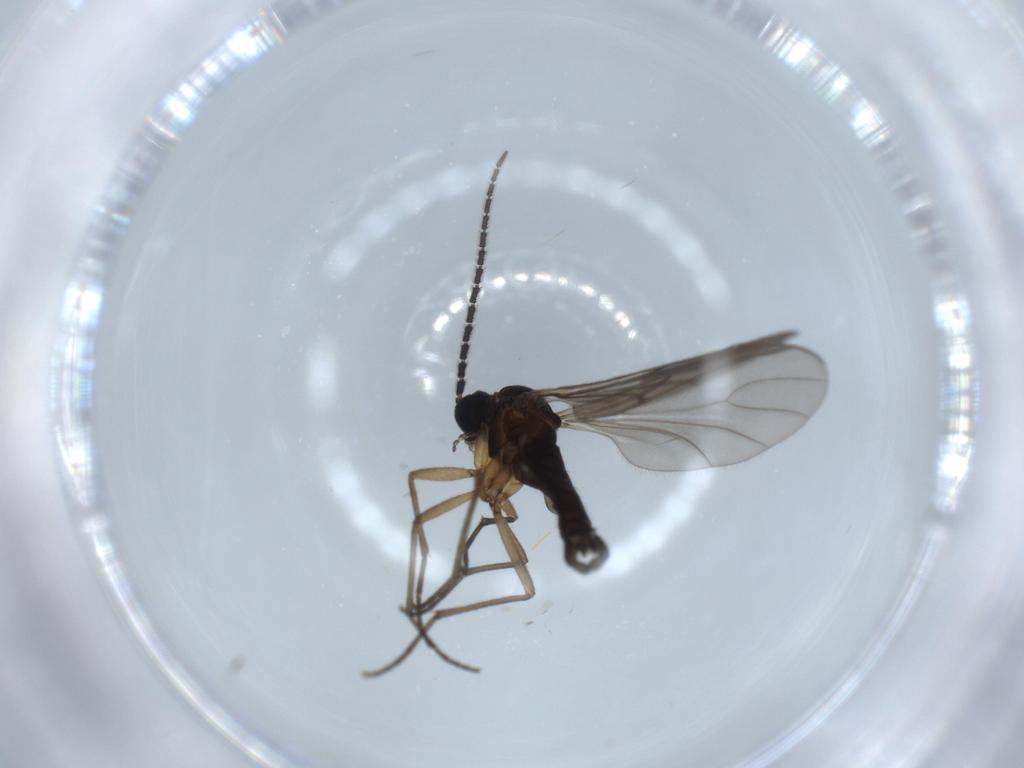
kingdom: Animalia
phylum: Arthropoda
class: Insecta
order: Diptera
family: Sciaridae
